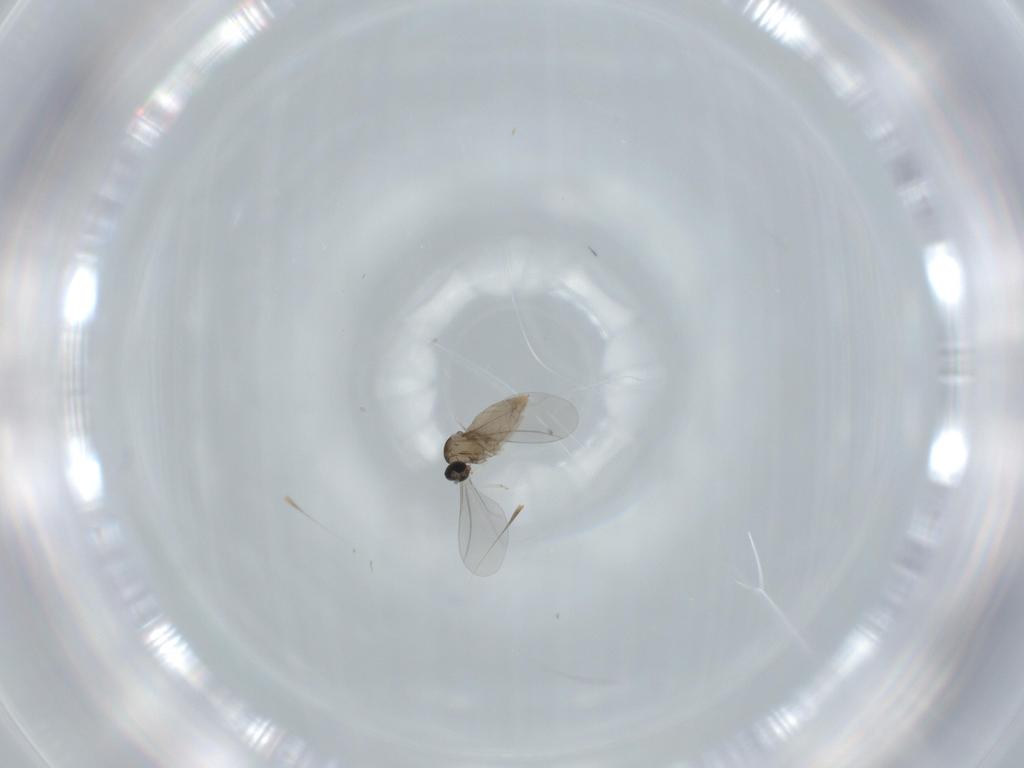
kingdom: Animalia
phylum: Arthropoda
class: Insecta
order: Diptera
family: Cecidomyiidae
